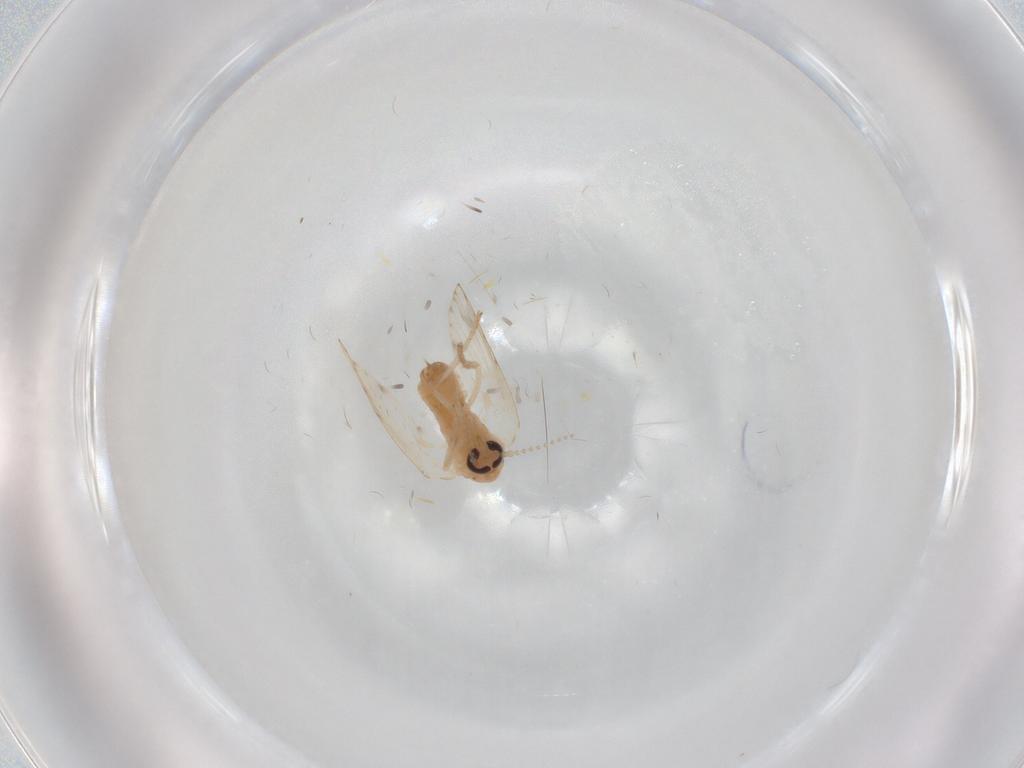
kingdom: Animalia
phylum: Arthropoda
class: Insecta
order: Diptera
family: Psychodidae
